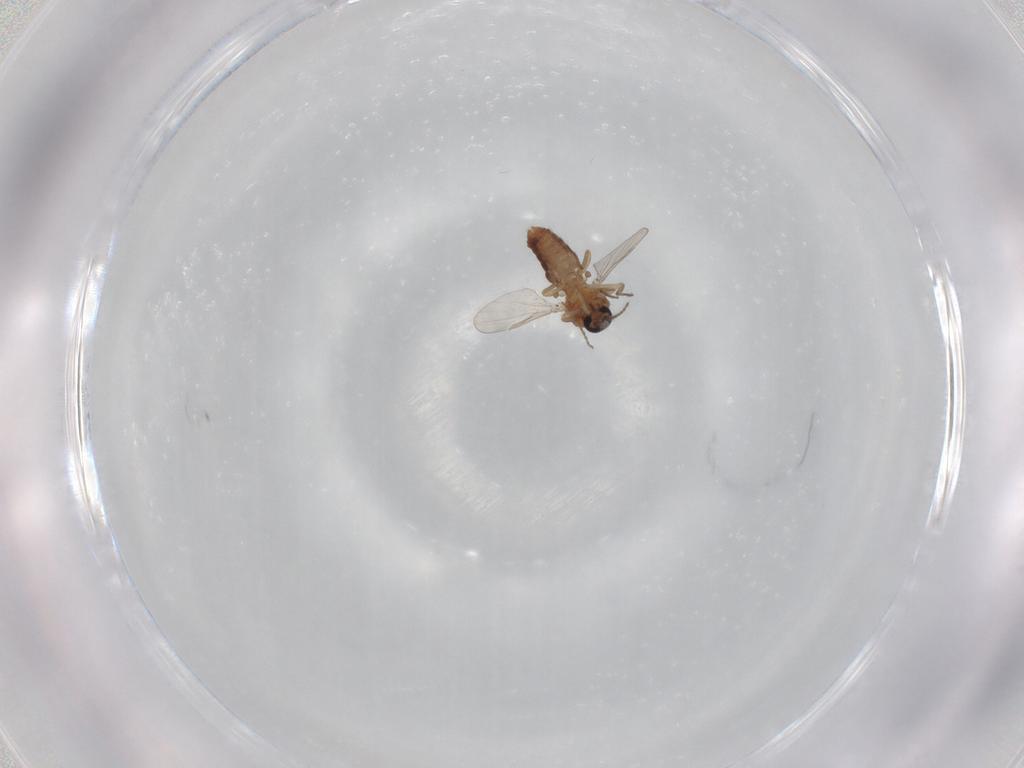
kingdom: Animalia
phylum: Arthropoda
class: Insecta
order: Diptera
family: Ceratopogonidae
